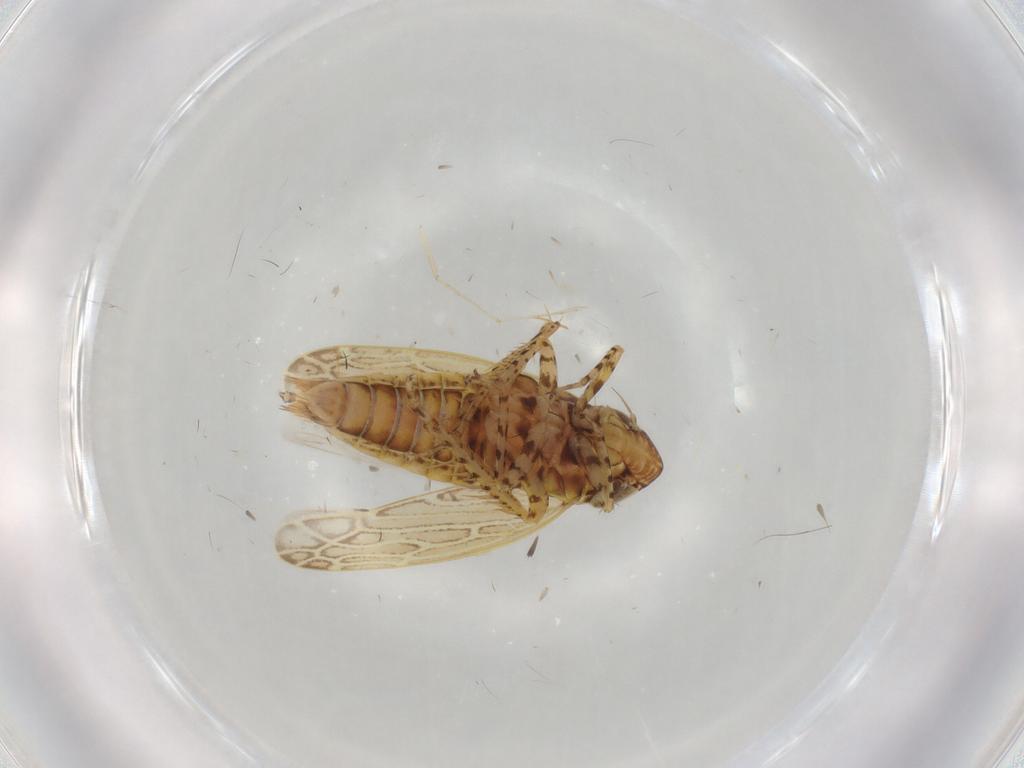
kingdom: Animalia
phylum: Arthropoda
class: Insecta
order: Hemiptera
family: Cicadellidae
